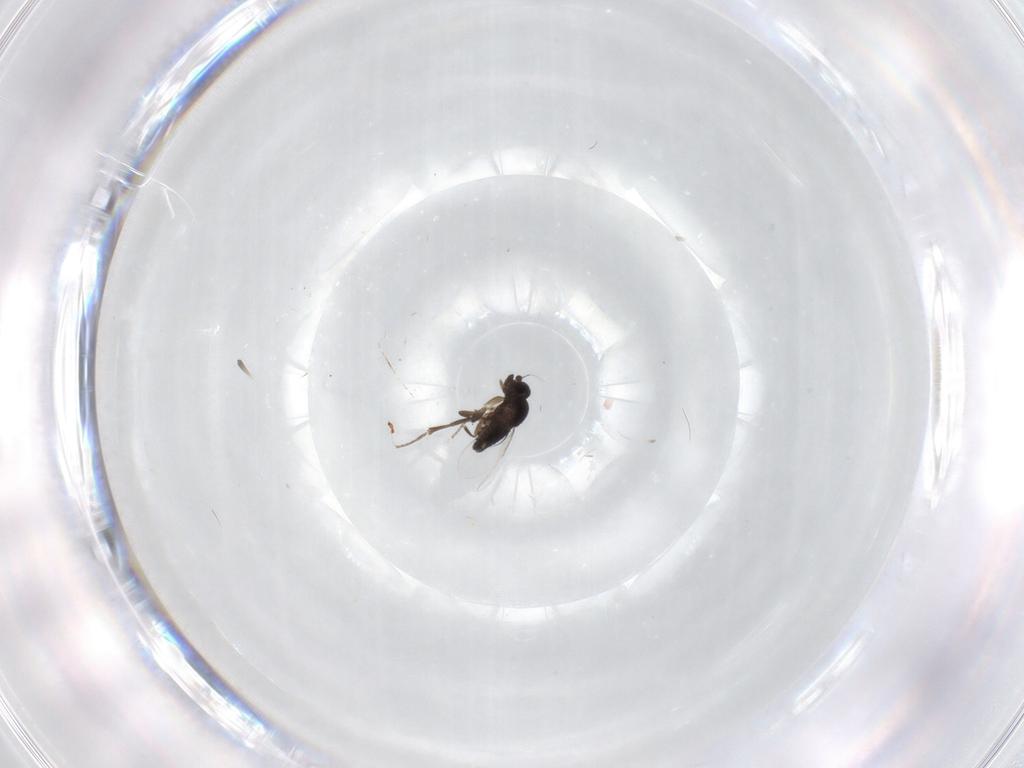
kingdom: Animalia
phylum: Arthropoda
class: Insecta
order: Diptera
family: Phoridae
